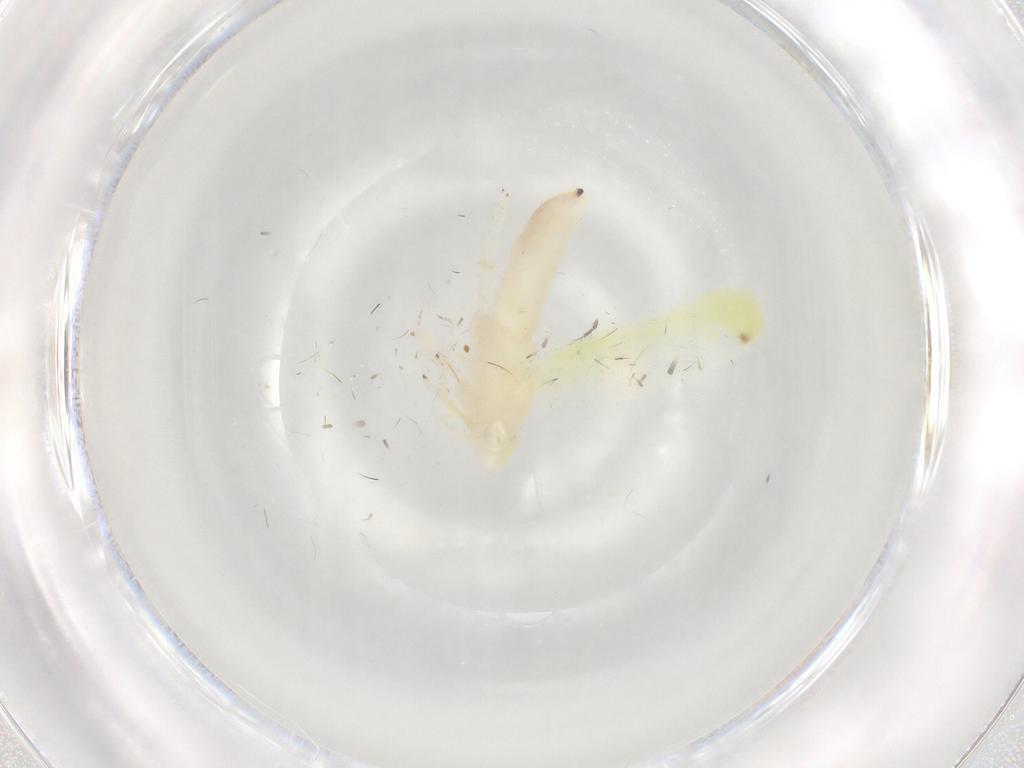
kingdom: Animalia
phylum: Arthropoda
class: Insecta
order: Hemiptera
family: Cicadellidae
